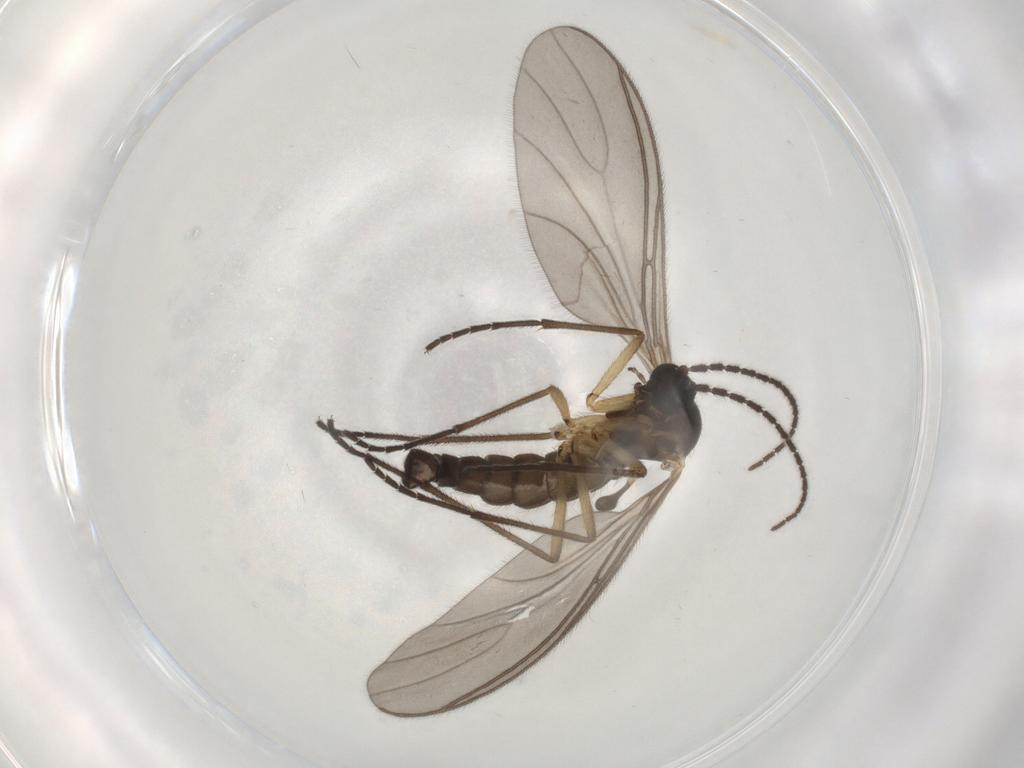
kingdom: Animalia
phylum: Arthropoda
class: Insecta
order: Diptera
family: Sciaridae
